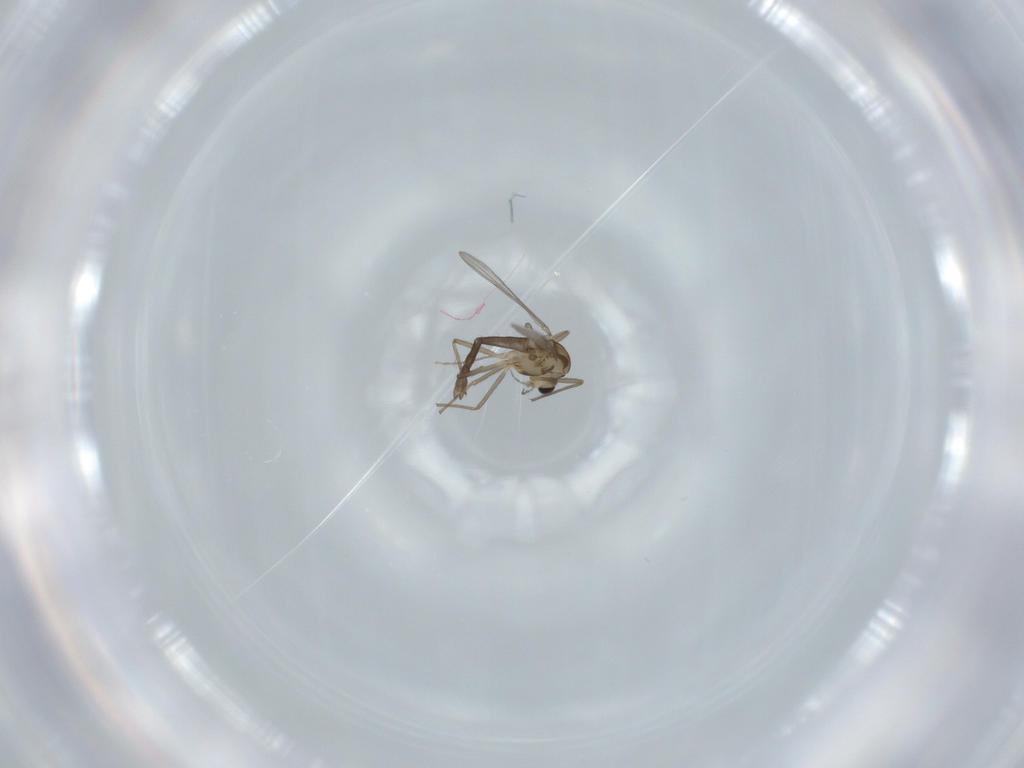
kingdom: Animalia
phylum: Arthropoda
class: Insecta
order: Diptera
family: Chironomidae
